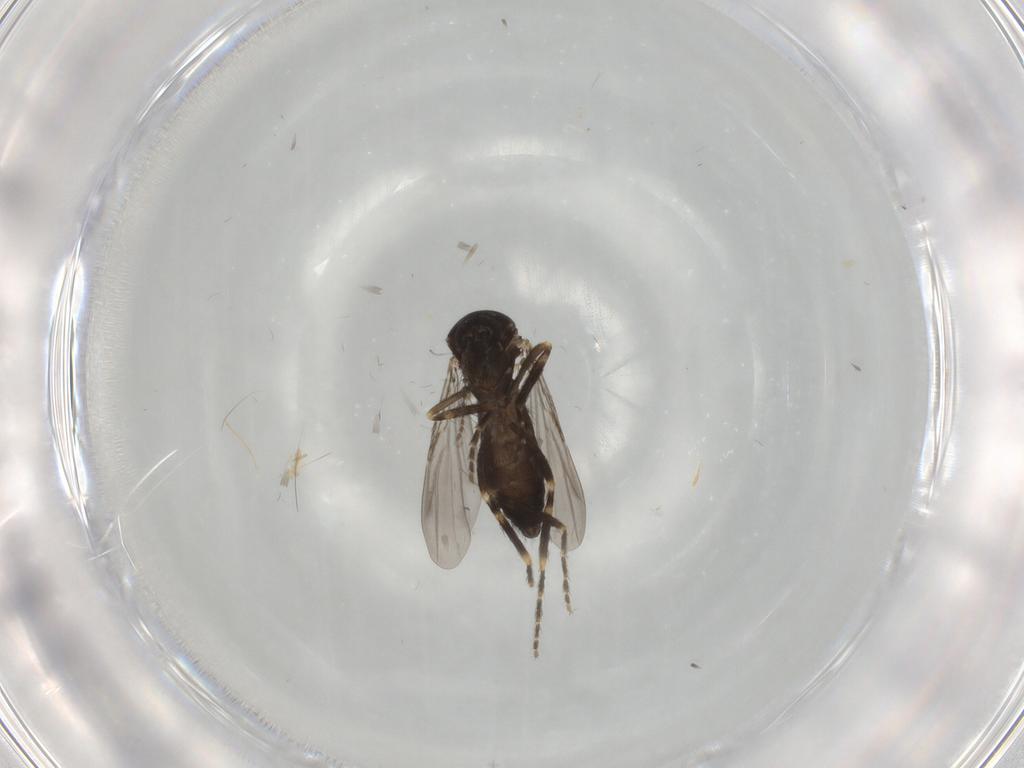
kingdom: Animalia
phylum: Arthropoda
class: Insecta
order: Diptera
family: Ceratopogonidae
